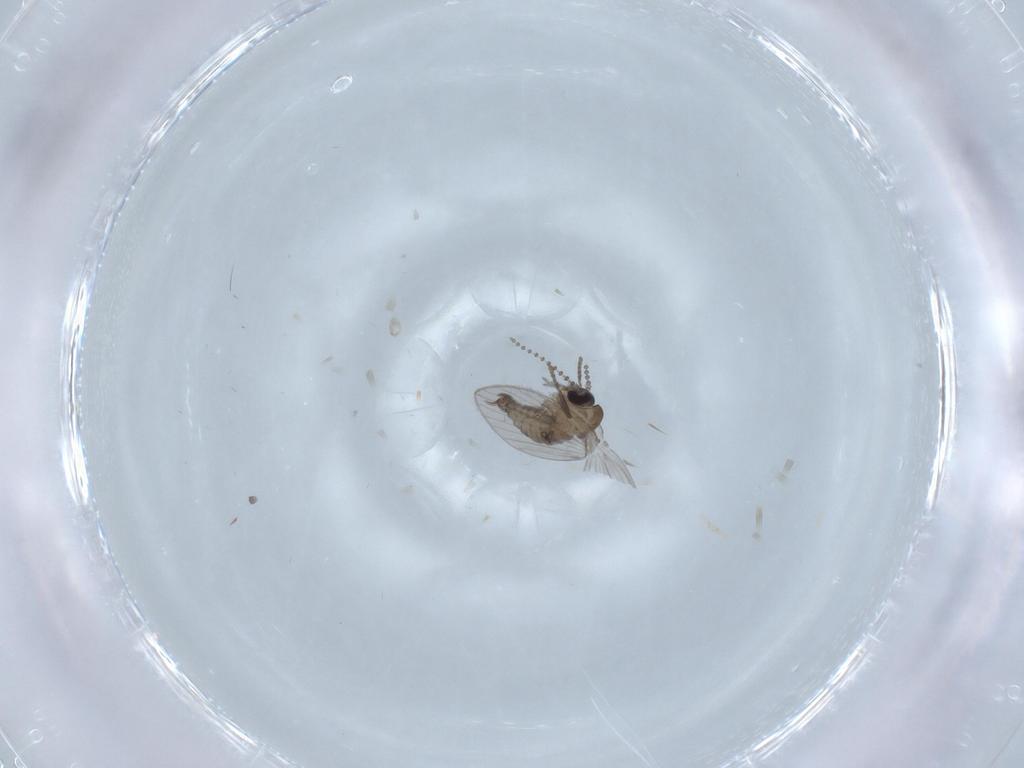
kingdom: Animalia
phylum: Arthropoda
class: Insecta
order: Diptera
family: Psychodidae
